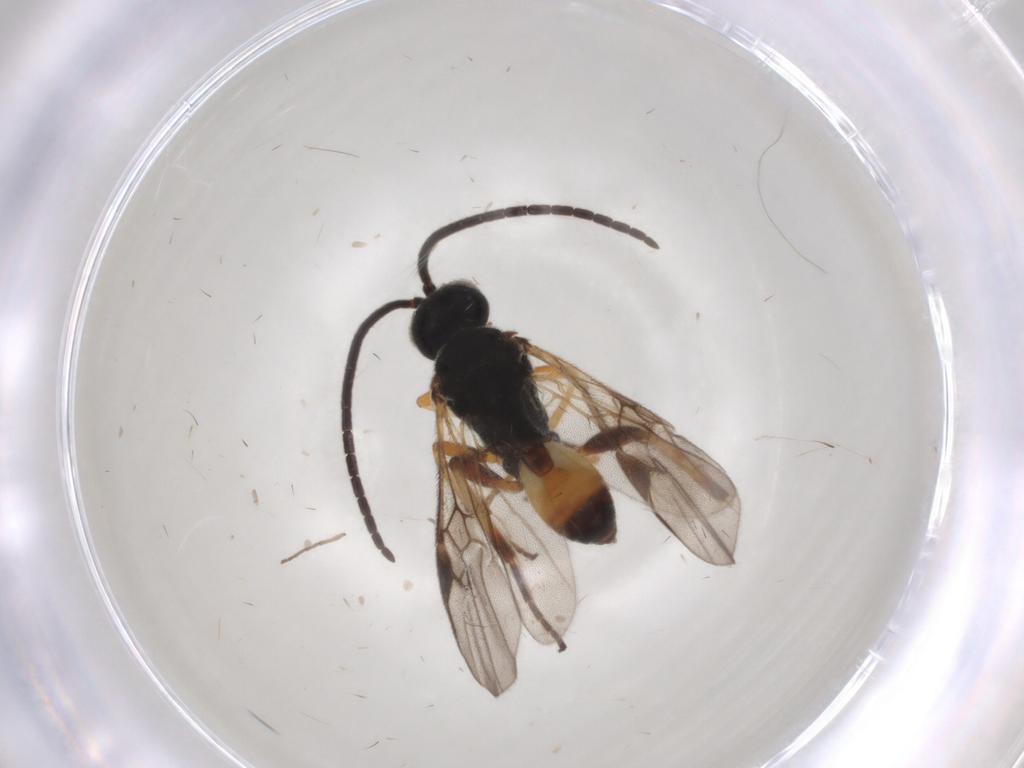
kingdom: Animalia
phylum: Arthropoda
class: Insecta
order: Hymenoptera
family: Braconidae
